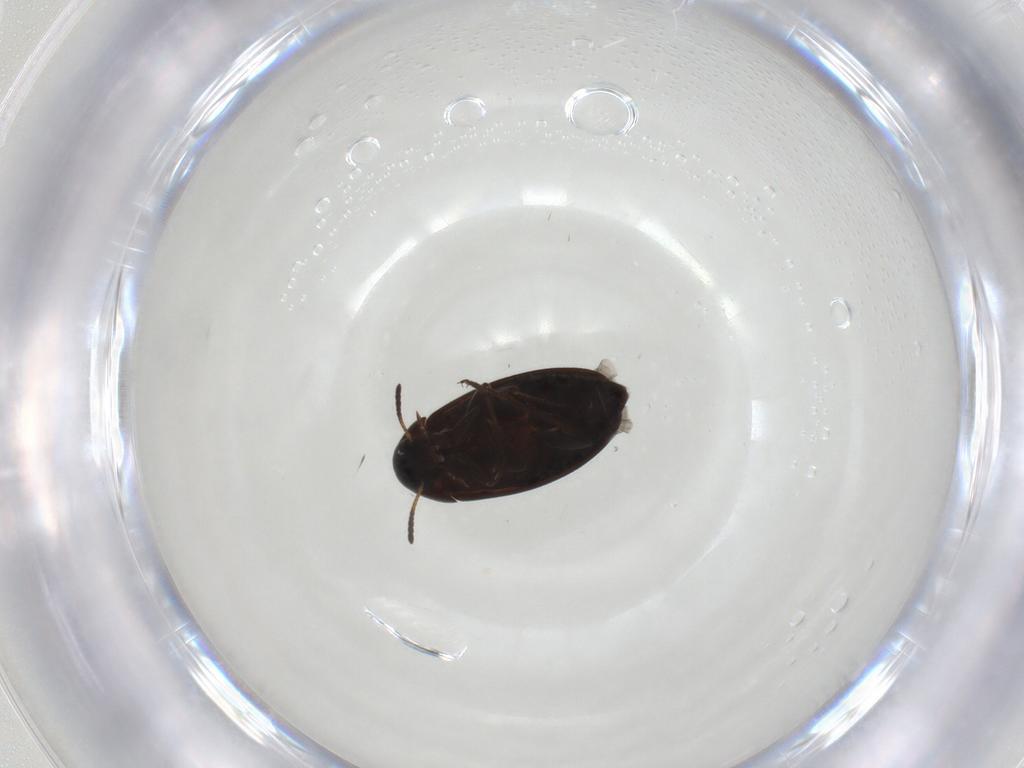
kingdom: Animalia
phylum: Arthropoda
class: Insecta
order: Coleoptera
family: Scraptiidae
